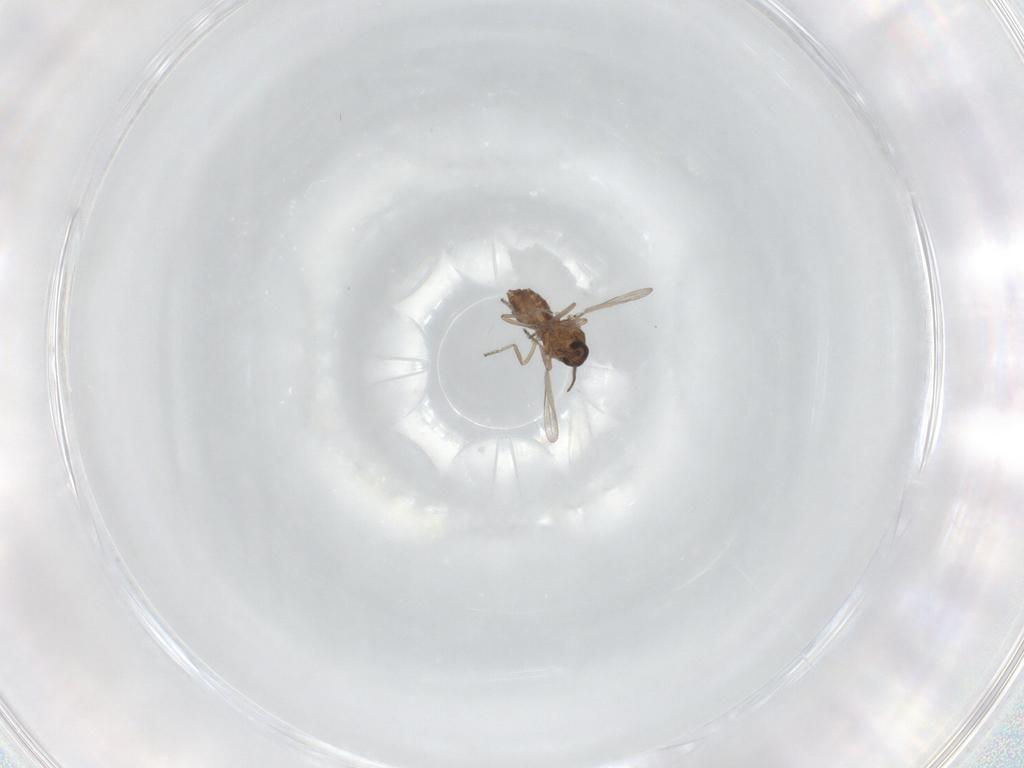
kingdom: Animalia
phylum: Arthropoda
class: Insecta
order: Diptera
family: Ceratopogonidae
